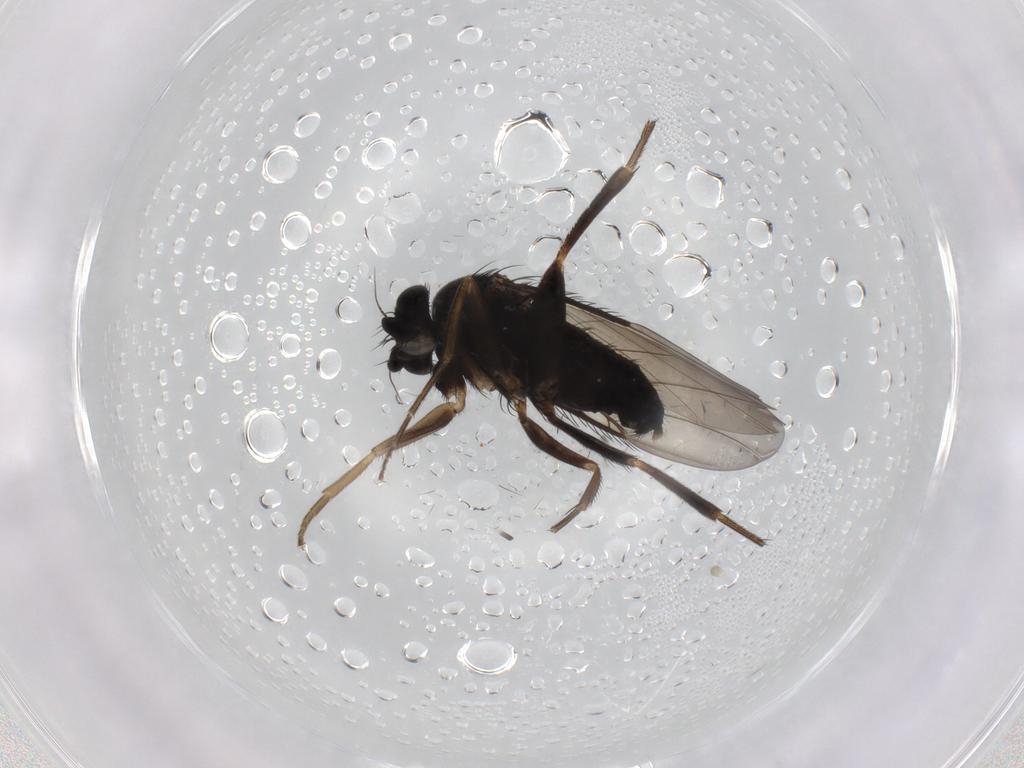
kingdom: Animalia
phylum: Arthropoda
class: Insecta
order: Diptera
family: Phoridae
